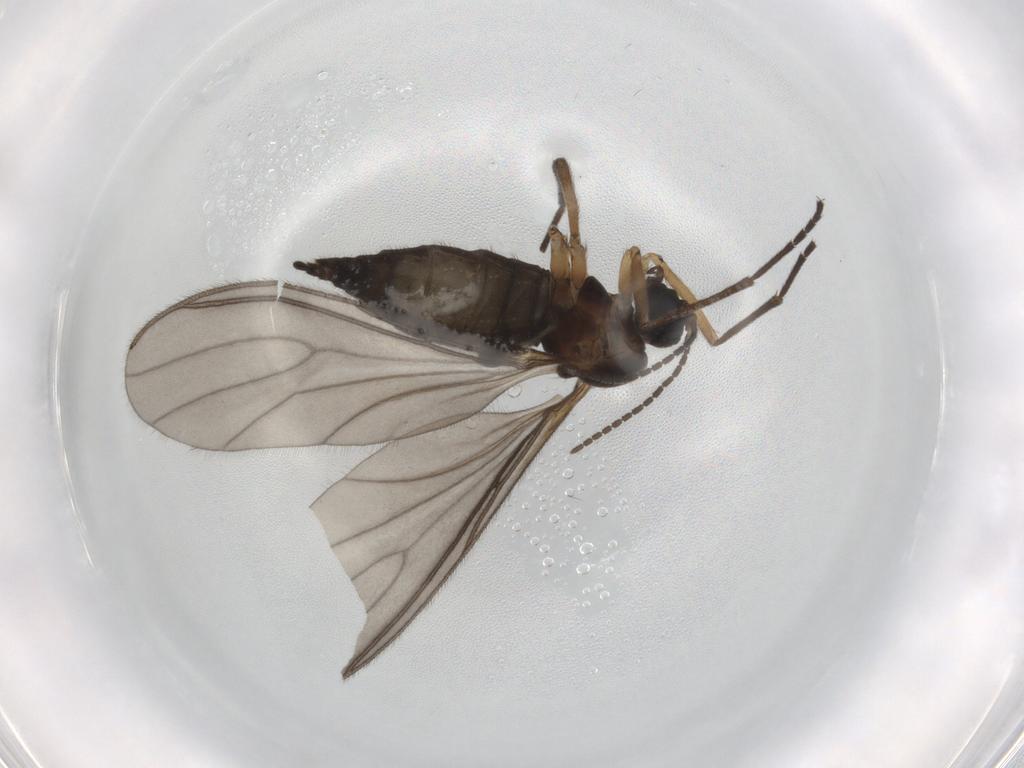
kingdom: Animalia
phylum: Arthropoda
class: Insecta
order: Diptera
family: Sciaridae
